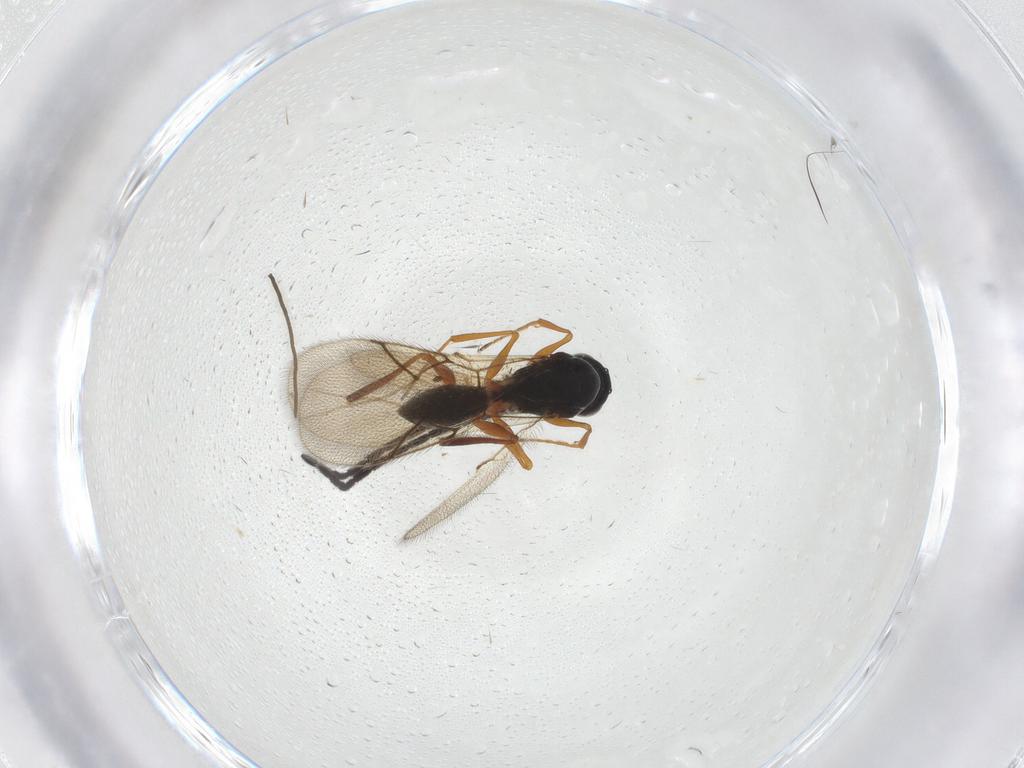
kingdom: Animalia
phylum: Arthropoda
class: Insecta
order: Hymenoptera
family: Figitidae
